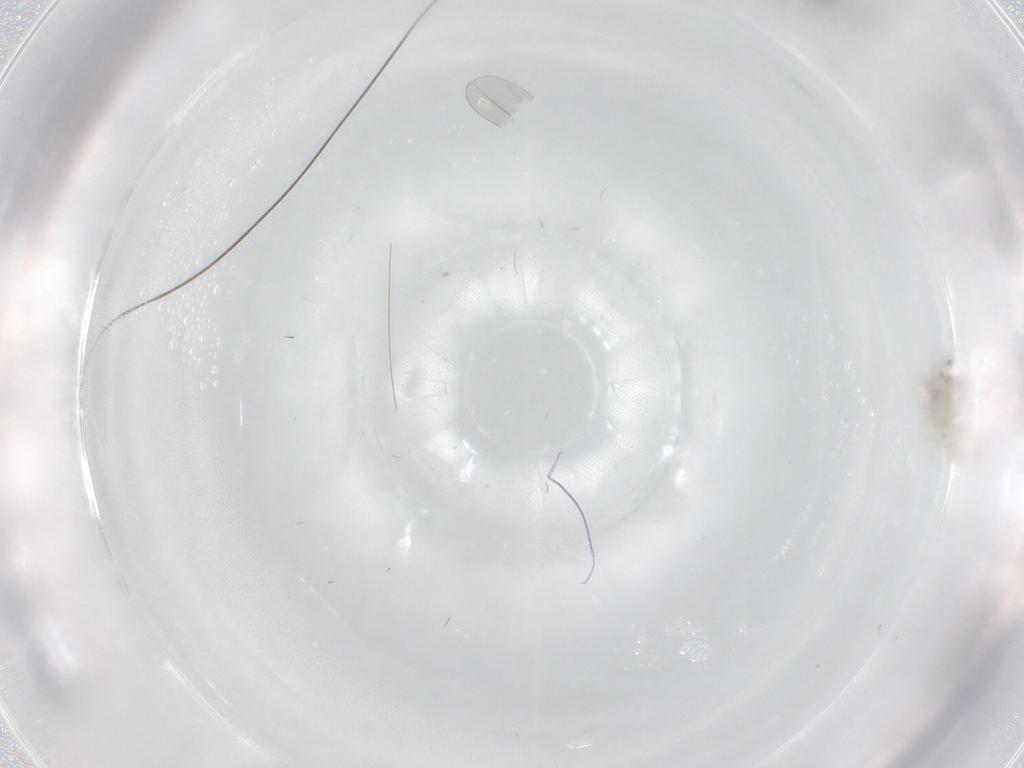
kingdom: Animalia
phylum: Arthropoda
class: Insecta
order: Diptera
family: Cecidomyiidae
